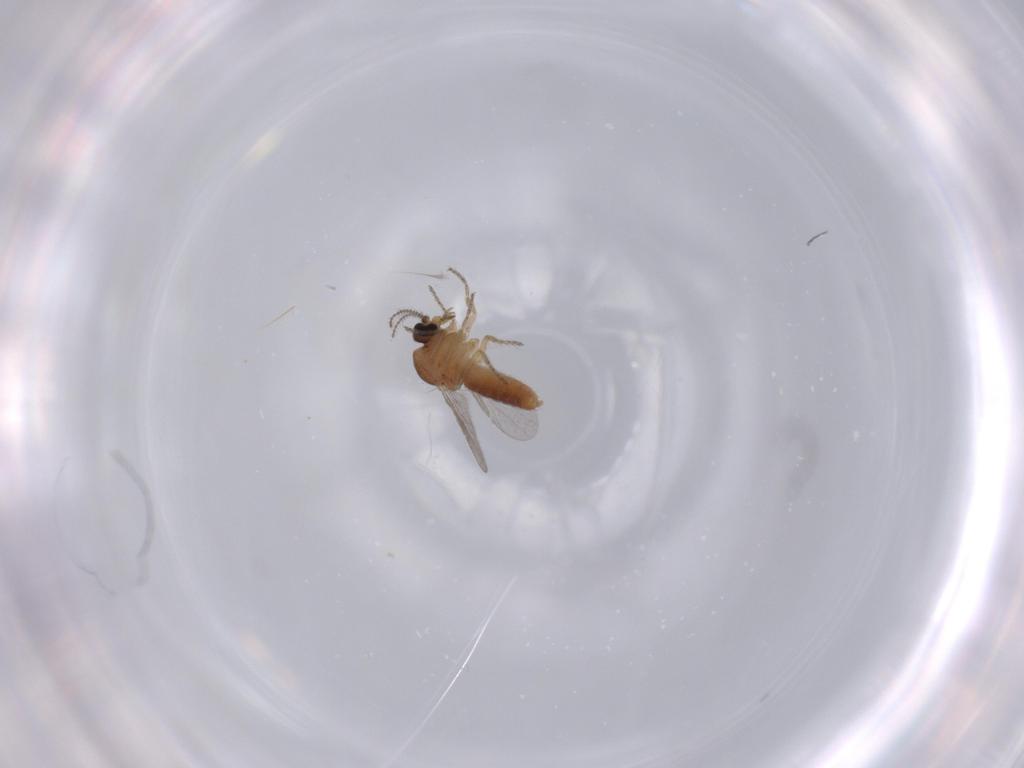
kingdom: Animalia
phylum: Arthropoda
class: Insecta
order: Diptera
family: Ceratopogonidae
